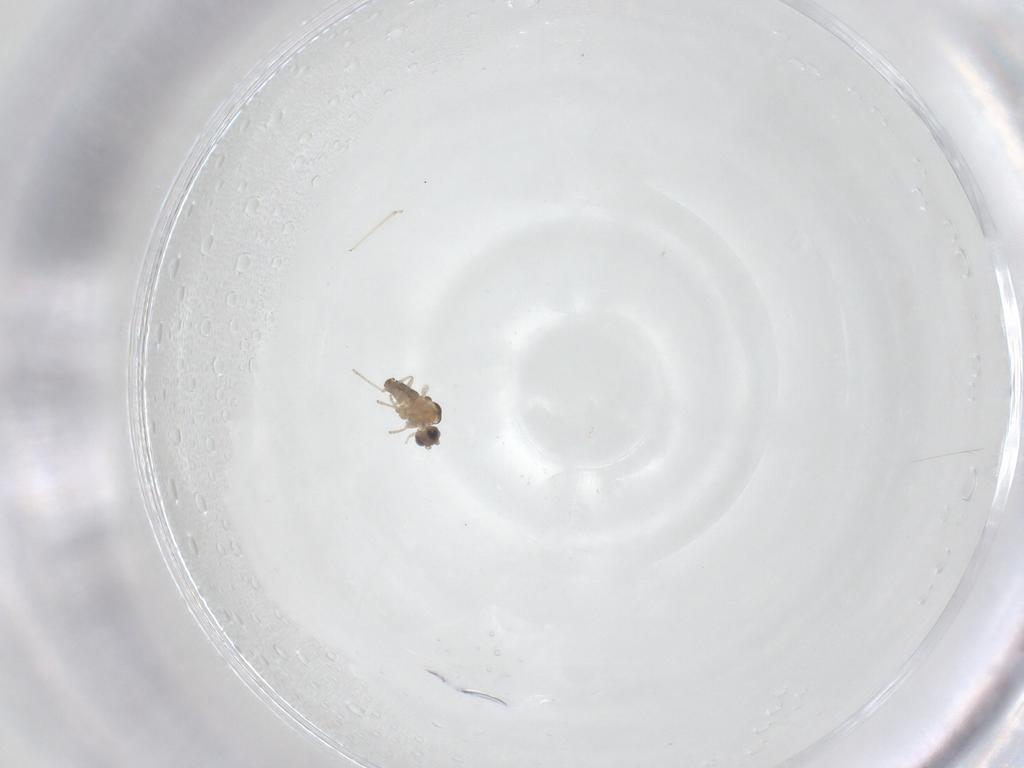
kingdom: Animalia
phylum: Arthropoda
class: Insecta
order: Diptera
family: Cecidomyiidae
